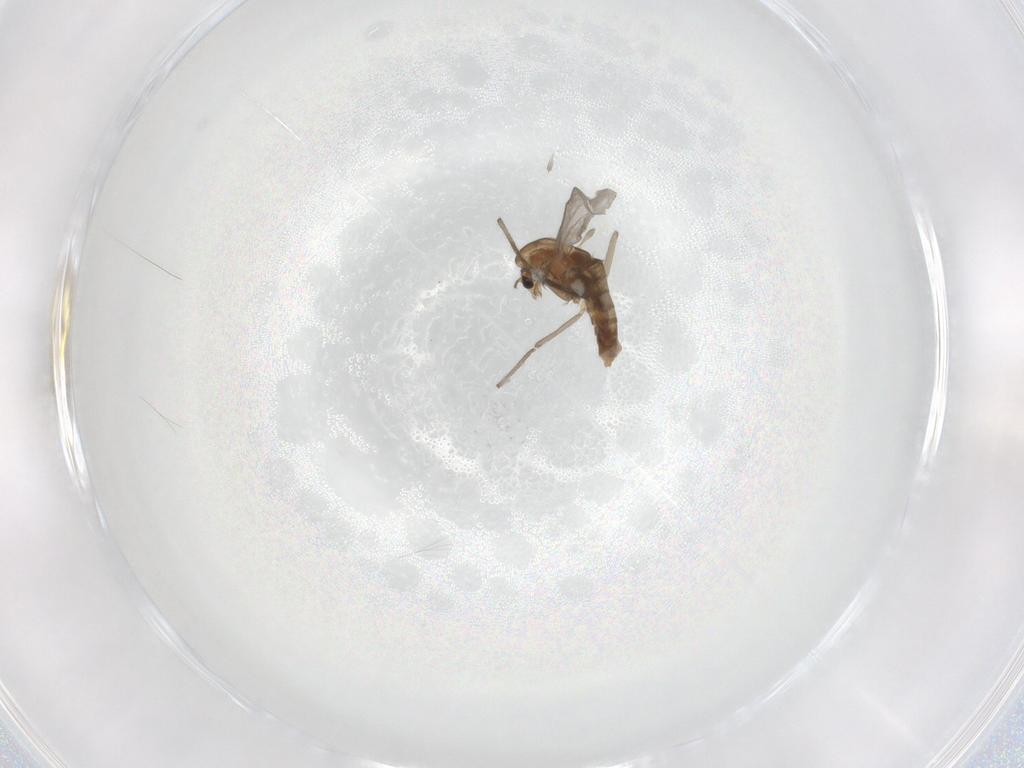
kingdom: Animalia
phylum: Arthropoda
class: Insecta
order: Diptera
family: Chironomidae
